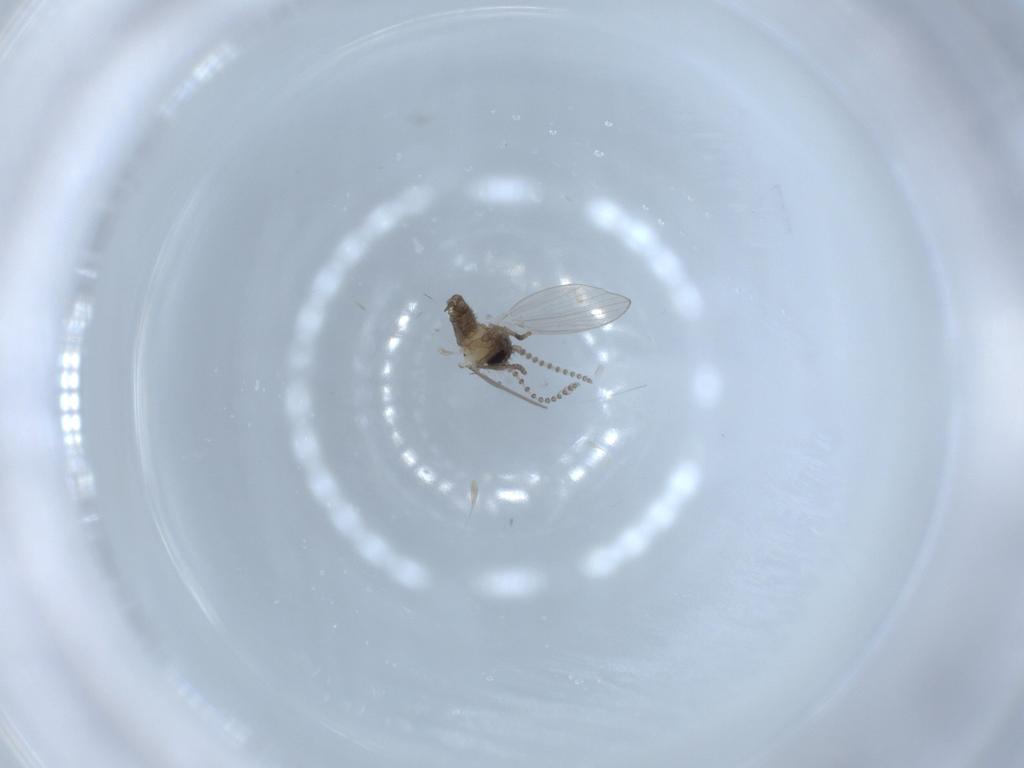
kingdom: Animalia
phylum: Arthropoda
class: Insecta
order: Diptera
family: Sciaridae
